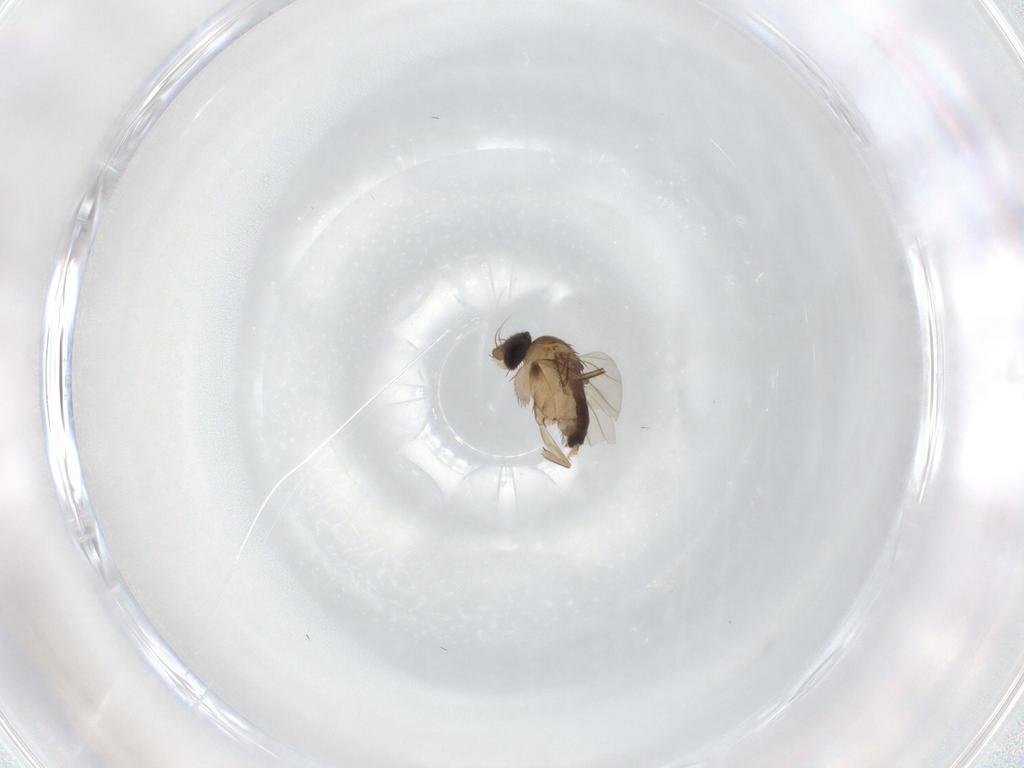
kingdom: Animalia
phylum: Arthropoda
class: Insecta
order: Diptera
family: Phoridae
